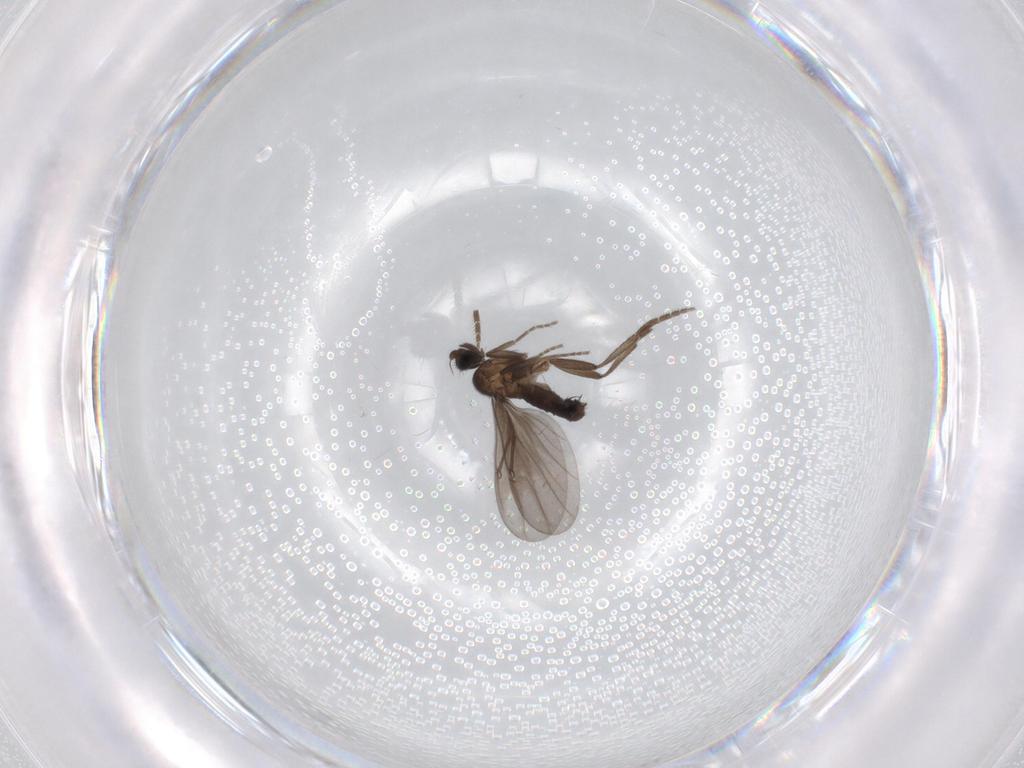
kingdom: Animalia
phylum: Arthropoda
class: Insecta
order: Diptera
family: Limoniidae
